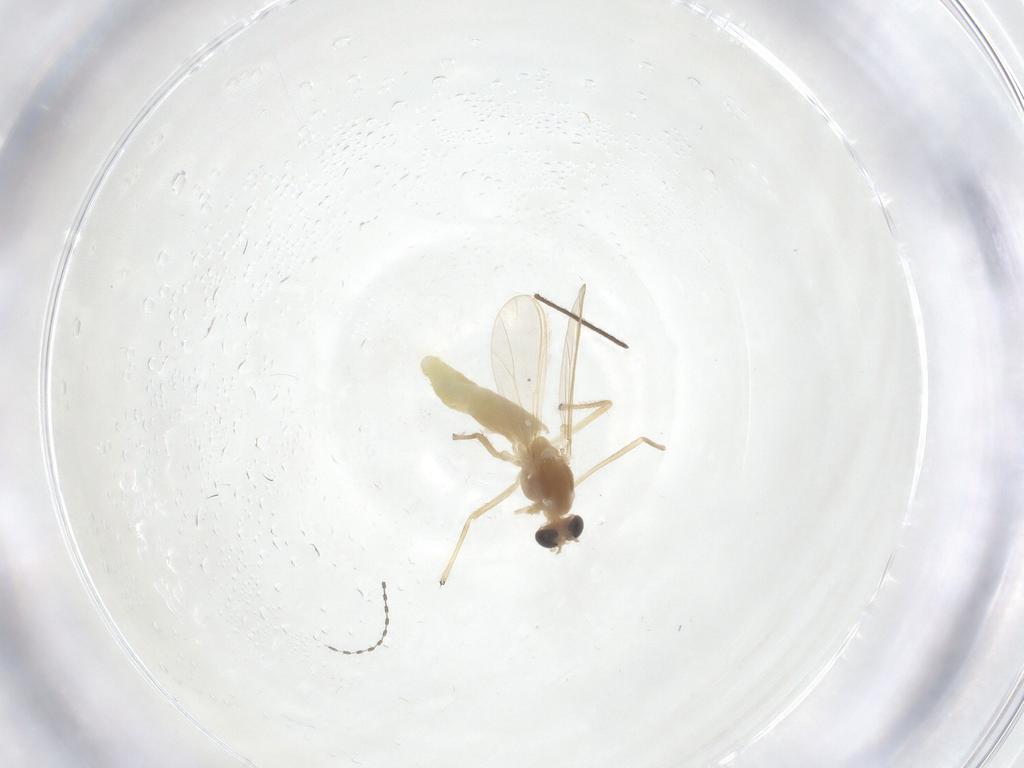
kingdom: Animalia
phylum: Arthropoda
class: Insecta
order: Diptera
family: Chironomidae
